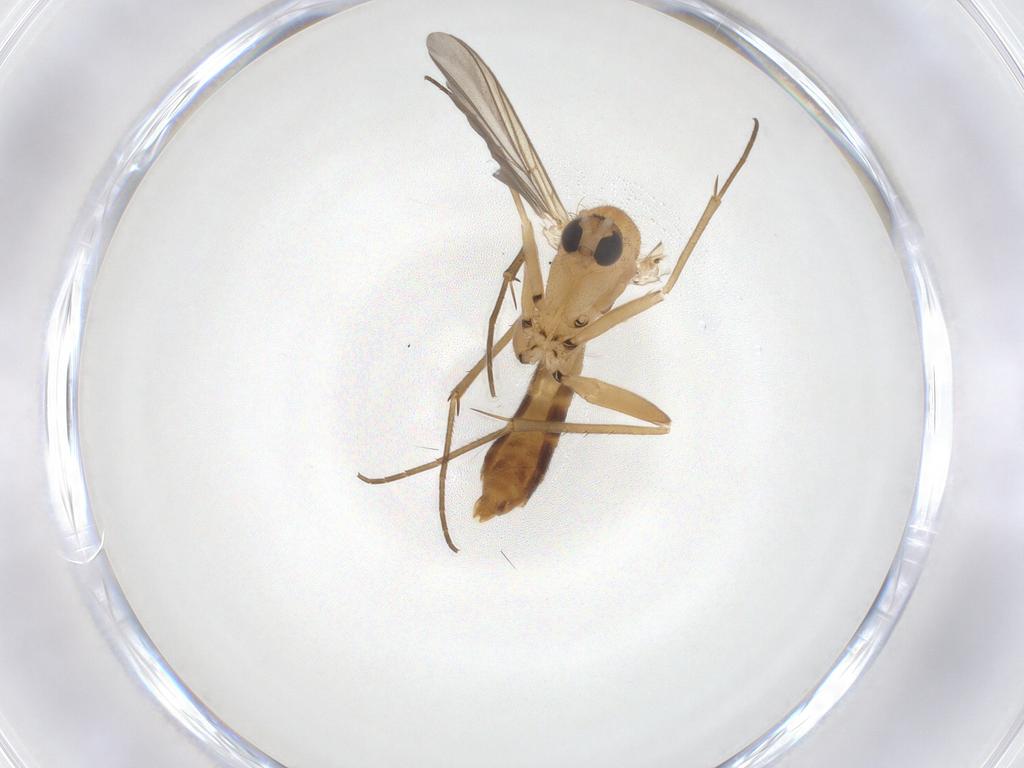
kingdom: Animalia
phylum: Arthropoda
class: Insecta
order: Diptera
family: Mycetophilidae
